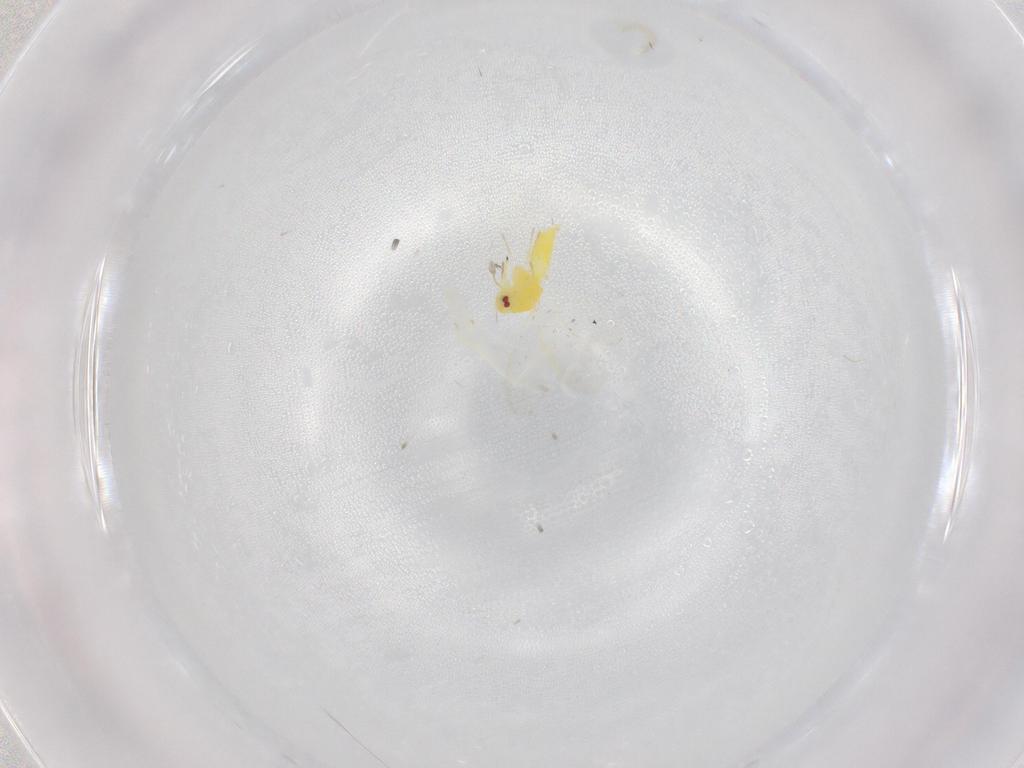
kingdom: Animalia
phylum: Arthropoda
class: Insecta
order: Hemiptera
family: Aleyrodidae
